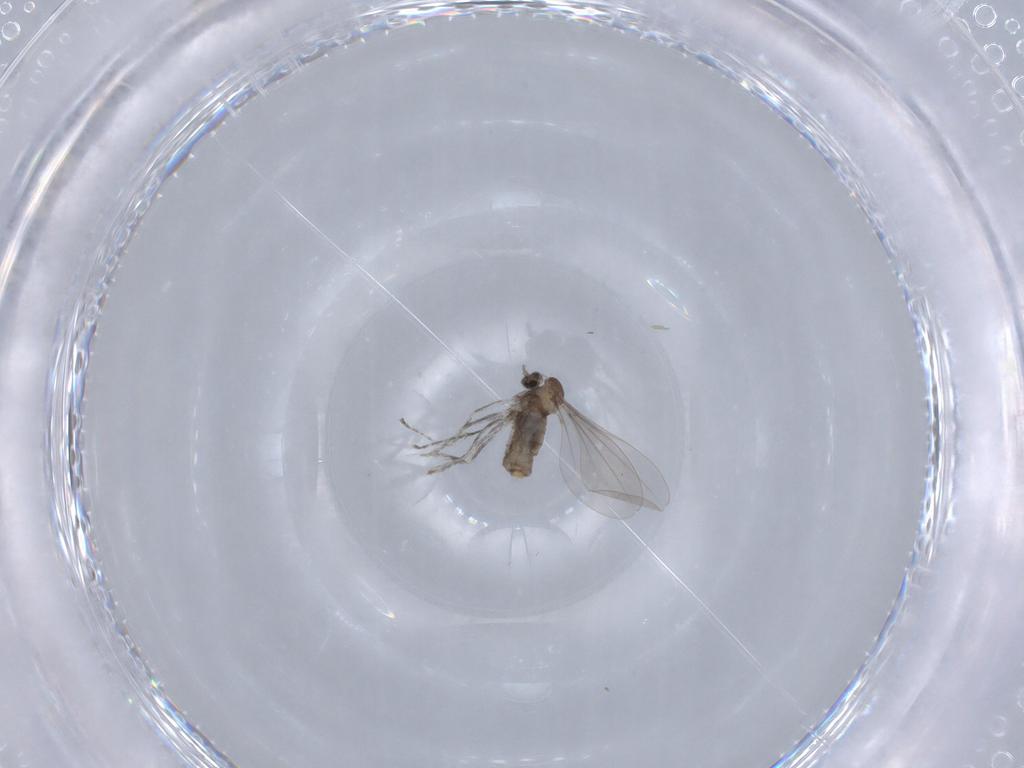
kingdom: Animalia
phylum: Arthropoda
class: Insecta
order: Diptera
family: Cecidomyiidae
